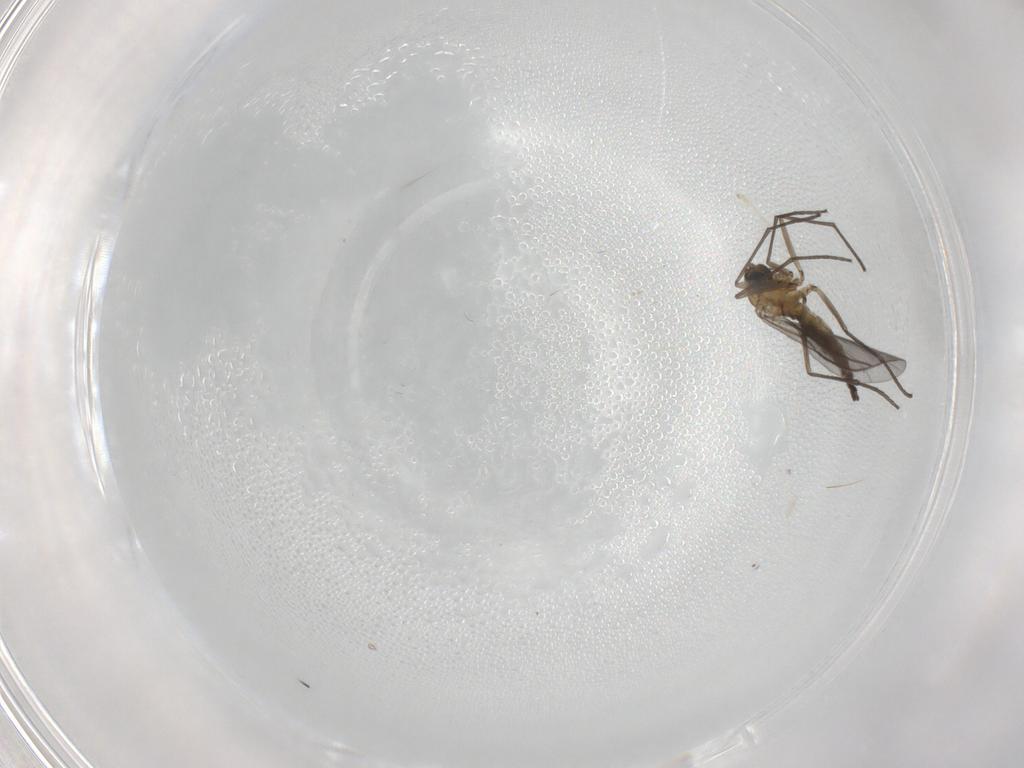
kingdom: Animalia
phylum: Arthropoda
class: Insecta
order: Diptera
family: Sciaridae
